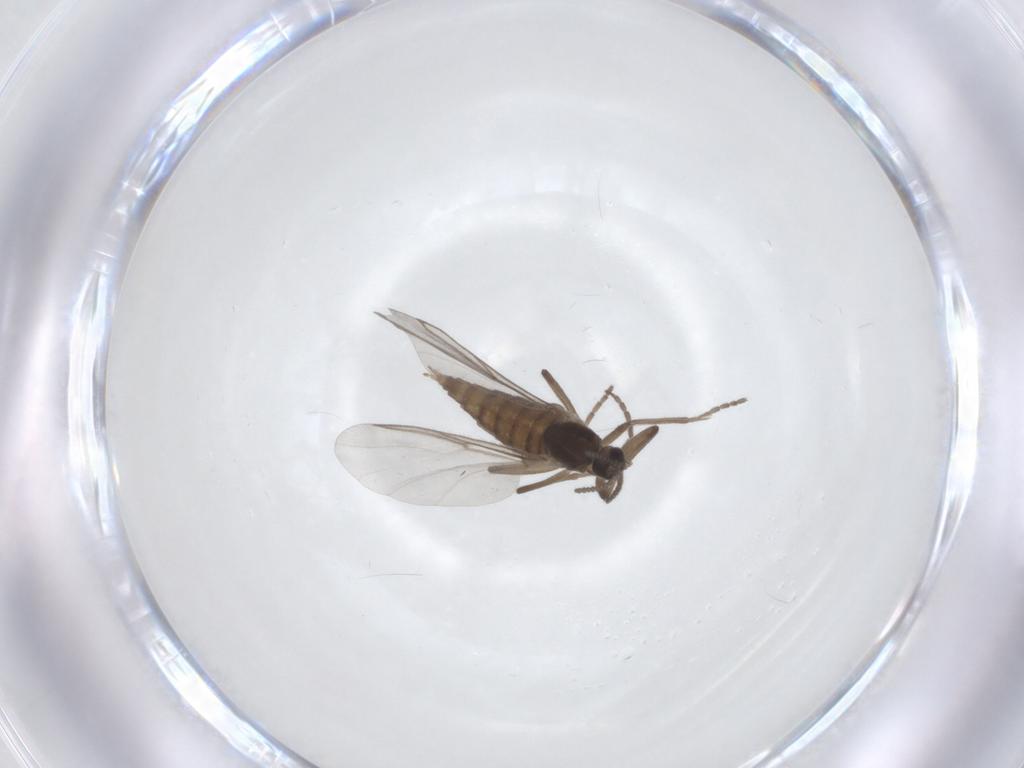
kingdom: Animalia
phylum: Arthropoda
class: Insecta
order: Diptera
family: Cecidomyiidae
